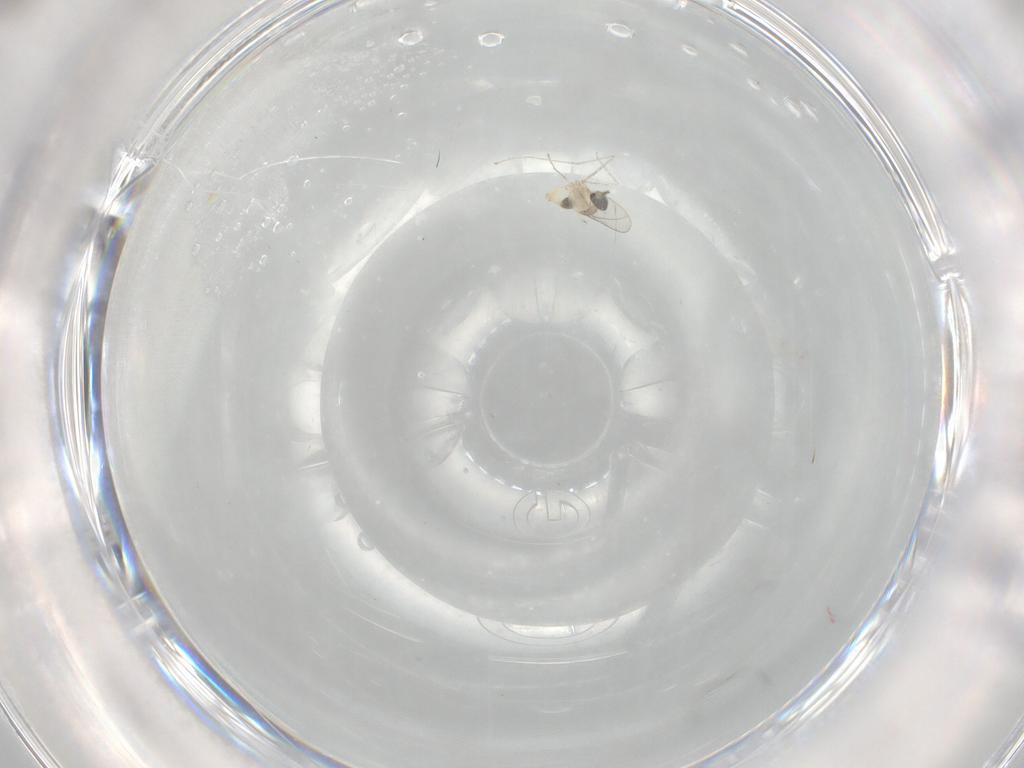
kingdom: Animalia
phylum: Arthropoda
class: Insecta
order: Diptera
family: Cecidomyiidae
